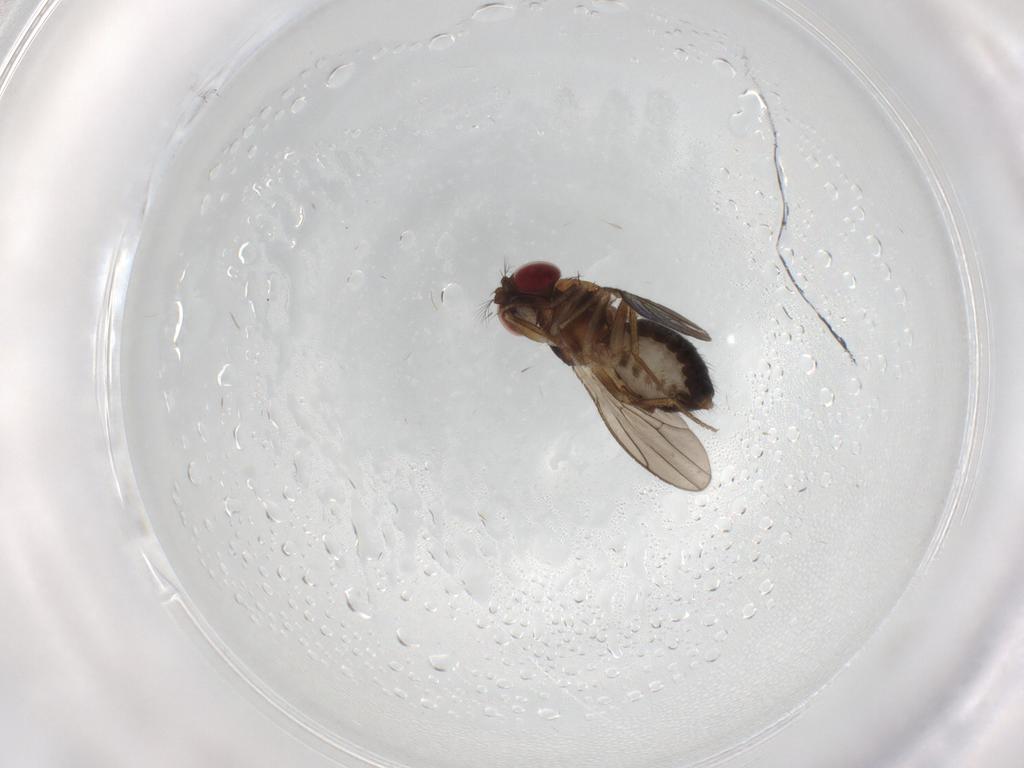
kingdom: Animalia
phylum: Arthropoda
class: Insecta
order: Diptera
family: Drosophilidae
